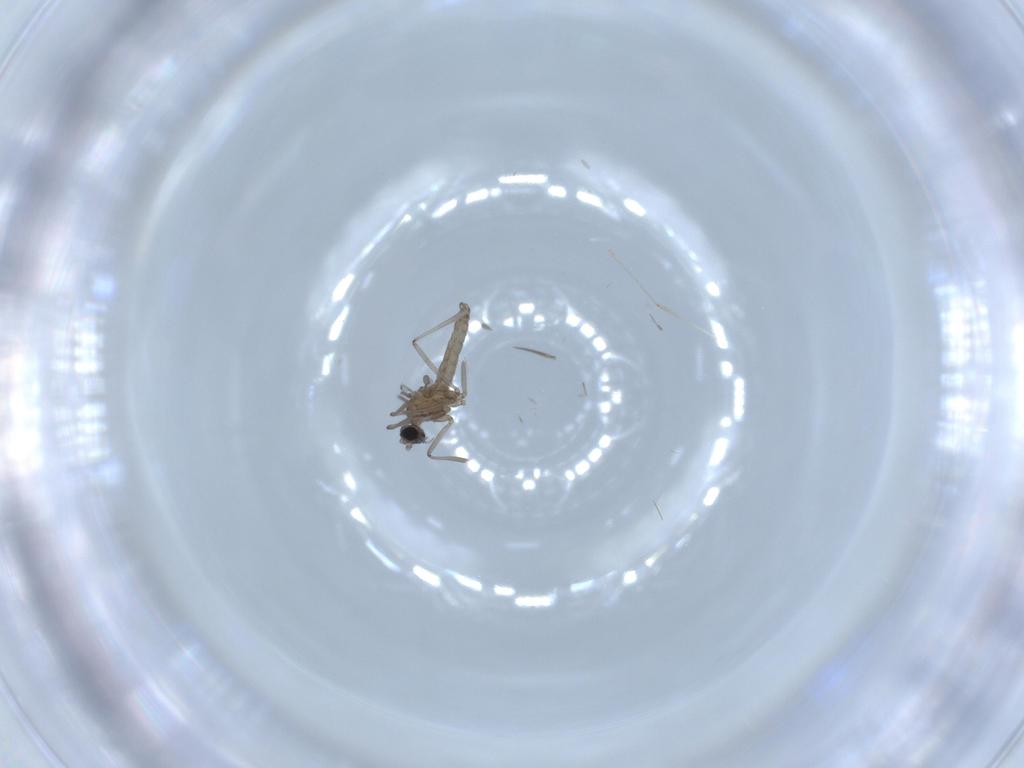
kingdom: Animalia
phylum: Arthropoda
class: Insecta
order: Diptera
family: Cecidomyiidae
